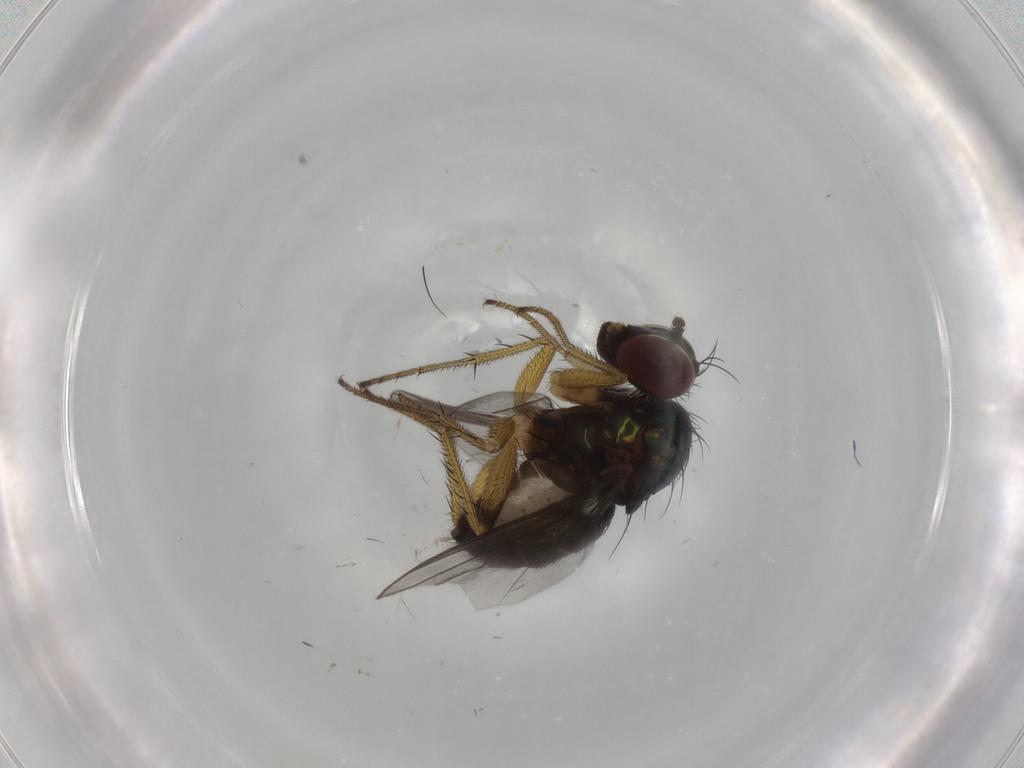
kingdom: Animalia
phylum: Arthropoda
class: Insecta
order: Diptera
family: Dolichopodidae
